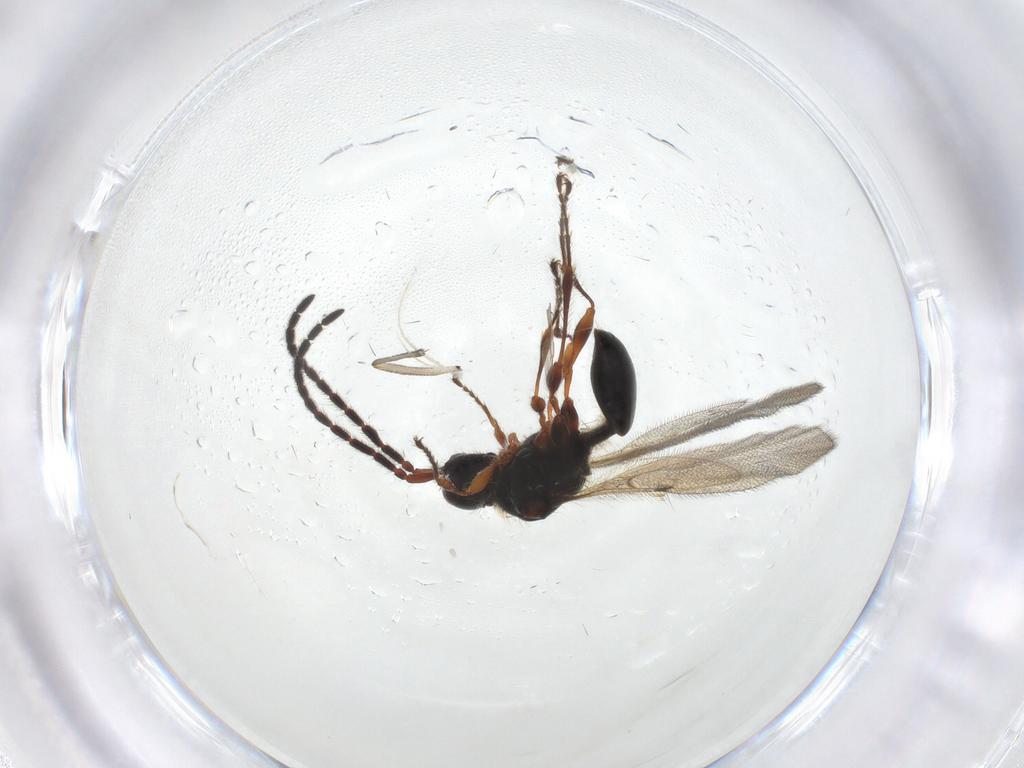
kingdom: Animalia
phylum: Arthropoda
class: Insecta
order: Hymenoptera
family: Diapriidae
